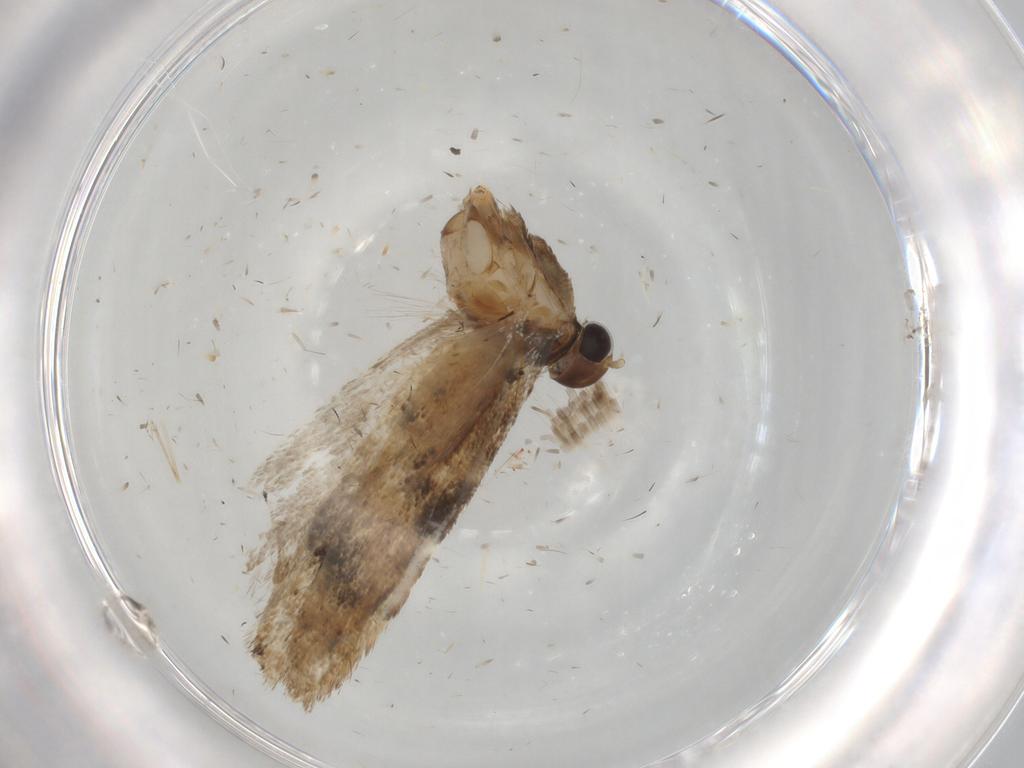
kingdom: Animalia
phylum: Arthropoda
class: Insecta
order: Lepidoptera
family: Gelechiidae
